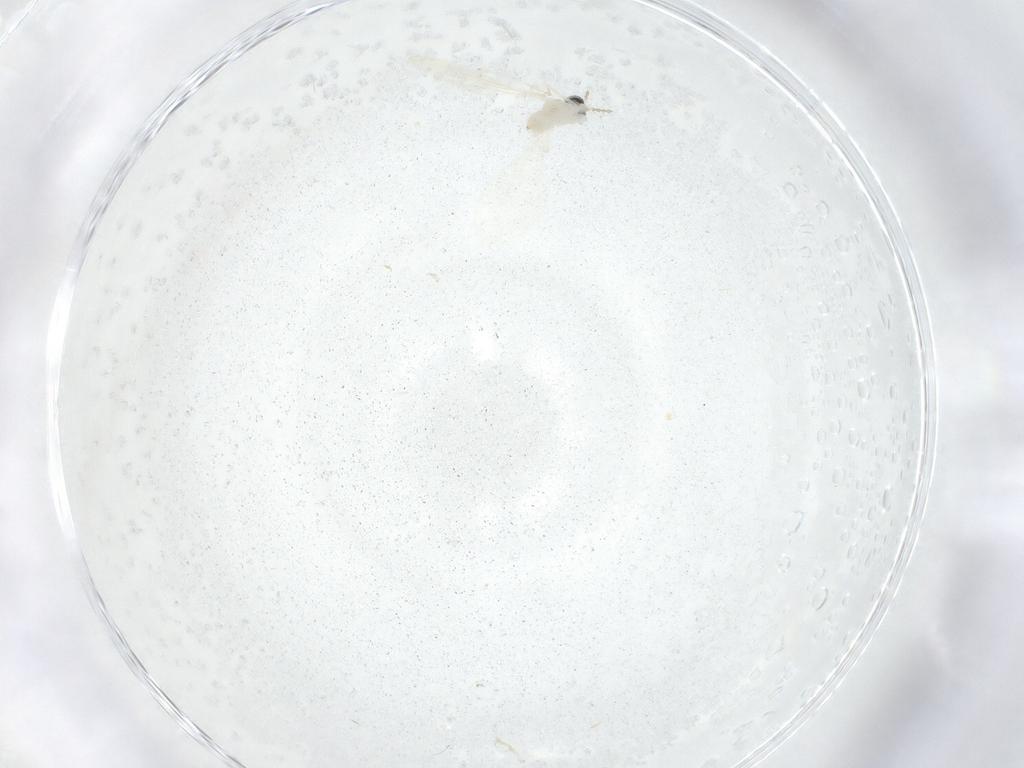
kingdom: Animalia
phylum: Arthropoda
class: Insecta
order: Diptera
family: Cecidomyiidae
